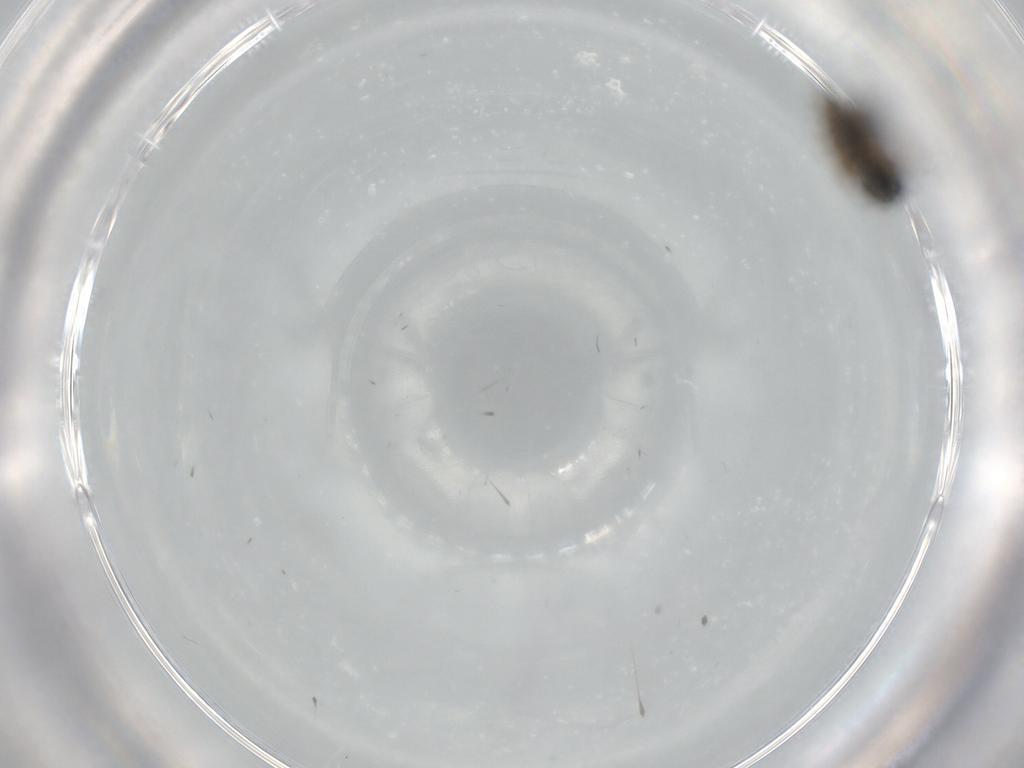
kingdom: Animalia
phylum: Arthropoda
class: Insecta
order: Hymenoptera
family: Mymaridae
